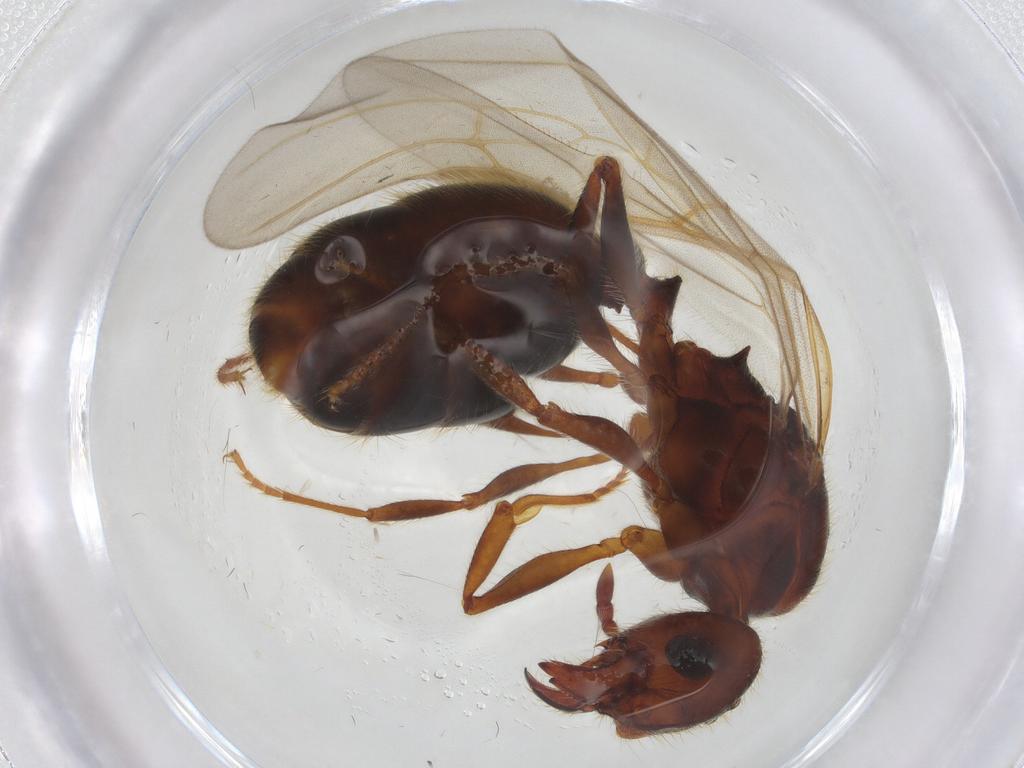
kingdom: Animalia
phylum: Arthropoda
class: Insecta
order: Hymenoptera
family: Formicidae
